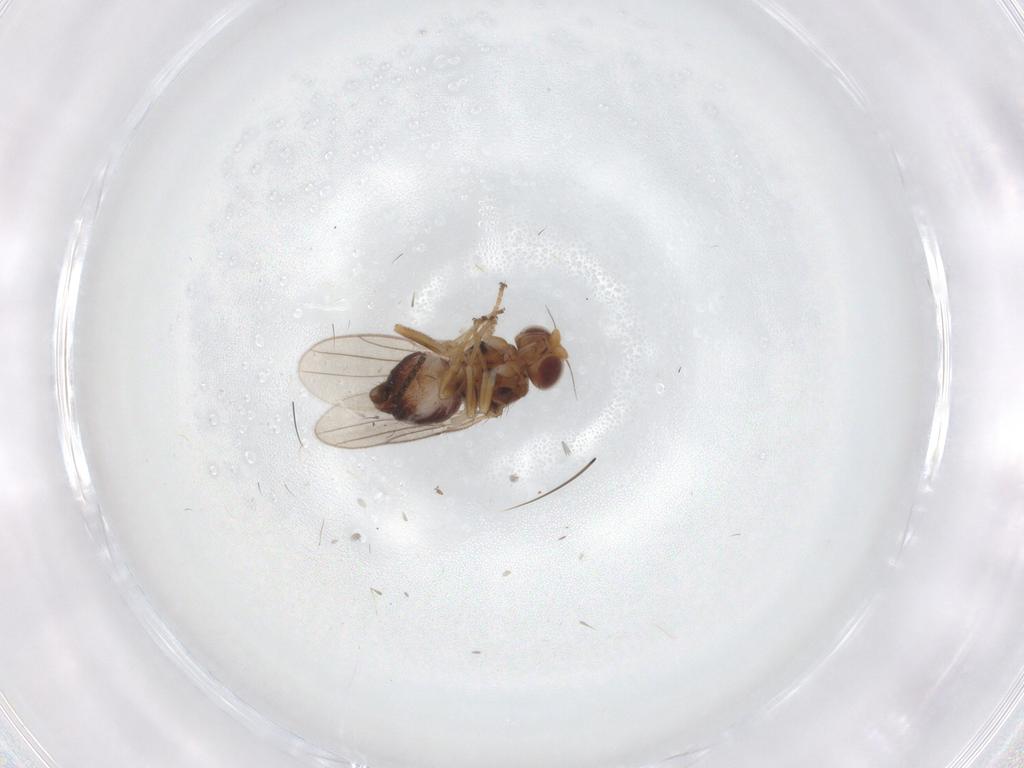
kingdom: Animalia
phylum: Arthropoda
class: Insecta
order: Diptera
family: Chloropidae
